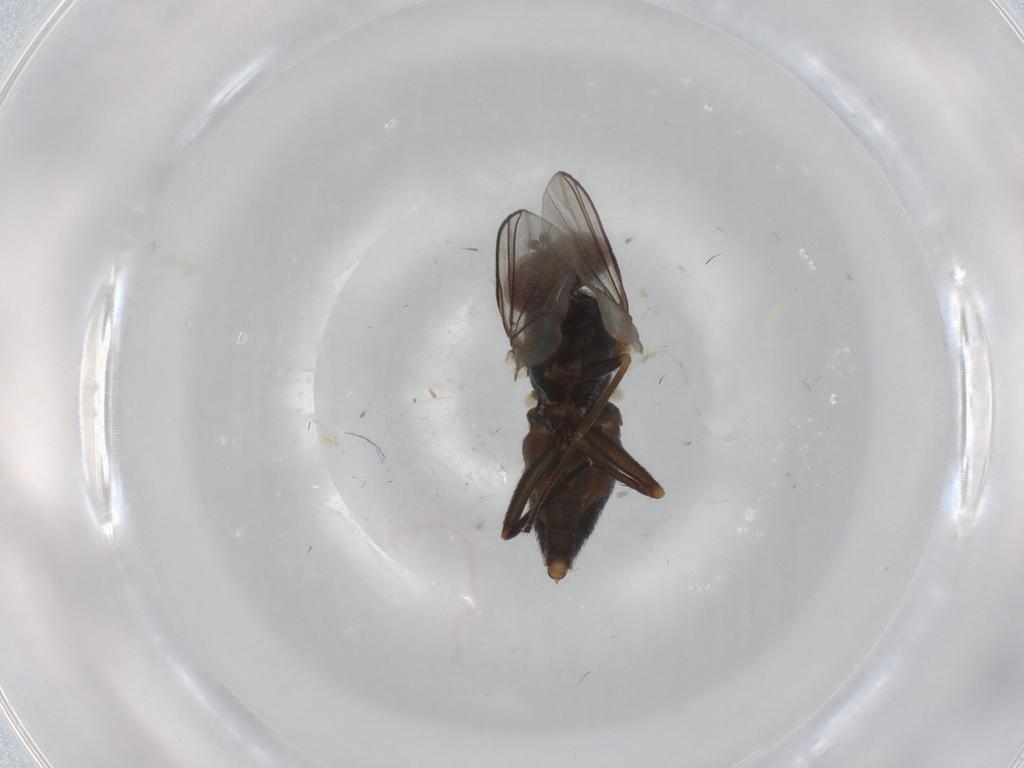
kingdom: Animalia
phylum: Arthropoda
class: Insecta
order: Diptera
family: Dolichopodidae
